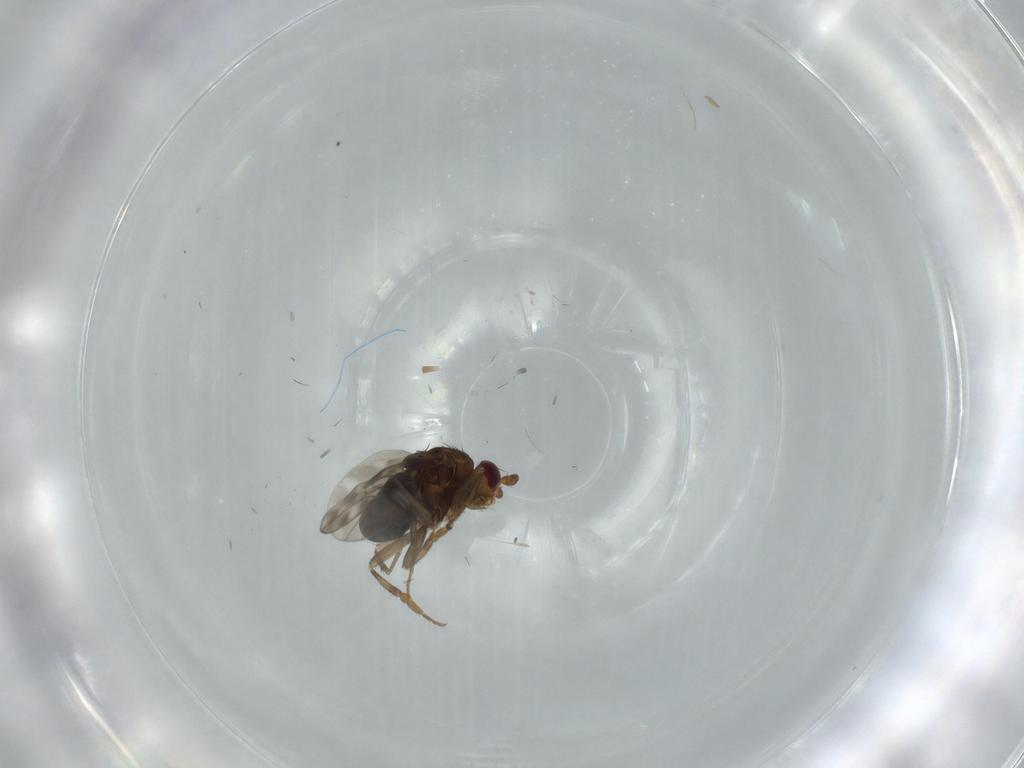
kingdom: Animalia
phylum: Arthropoda
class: Insecta
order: Diptera
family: Sphaeroceridae
